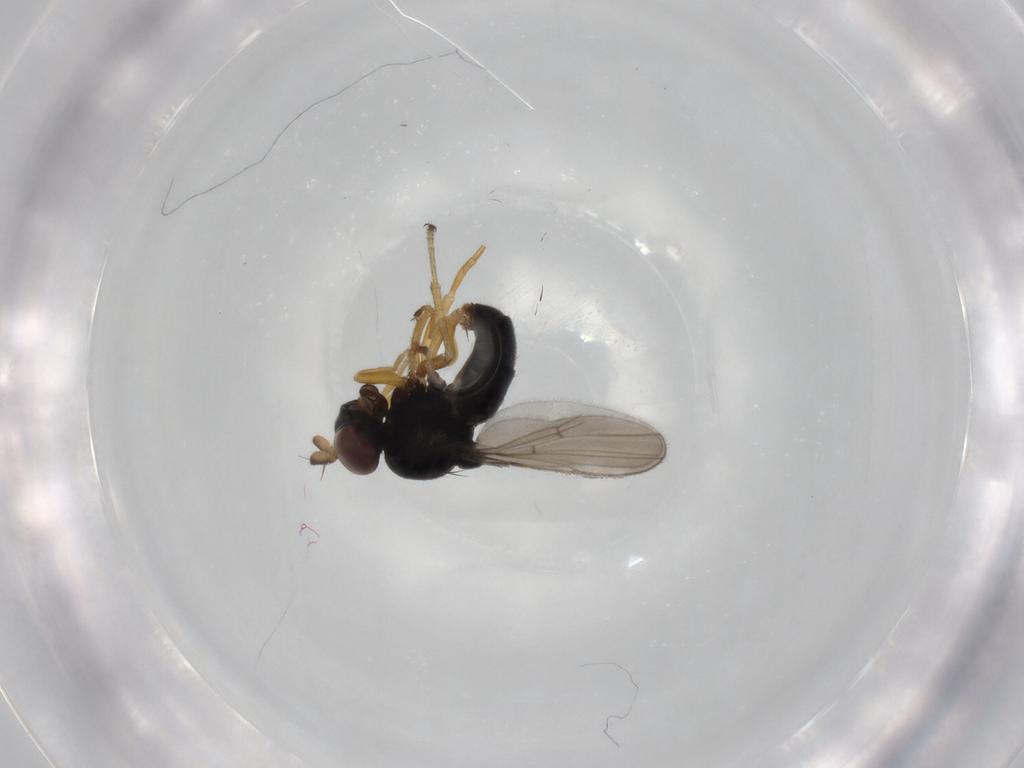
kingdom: Animalia
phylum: Arthropoda
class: Insecta
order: Diptera
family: Ephydridae
